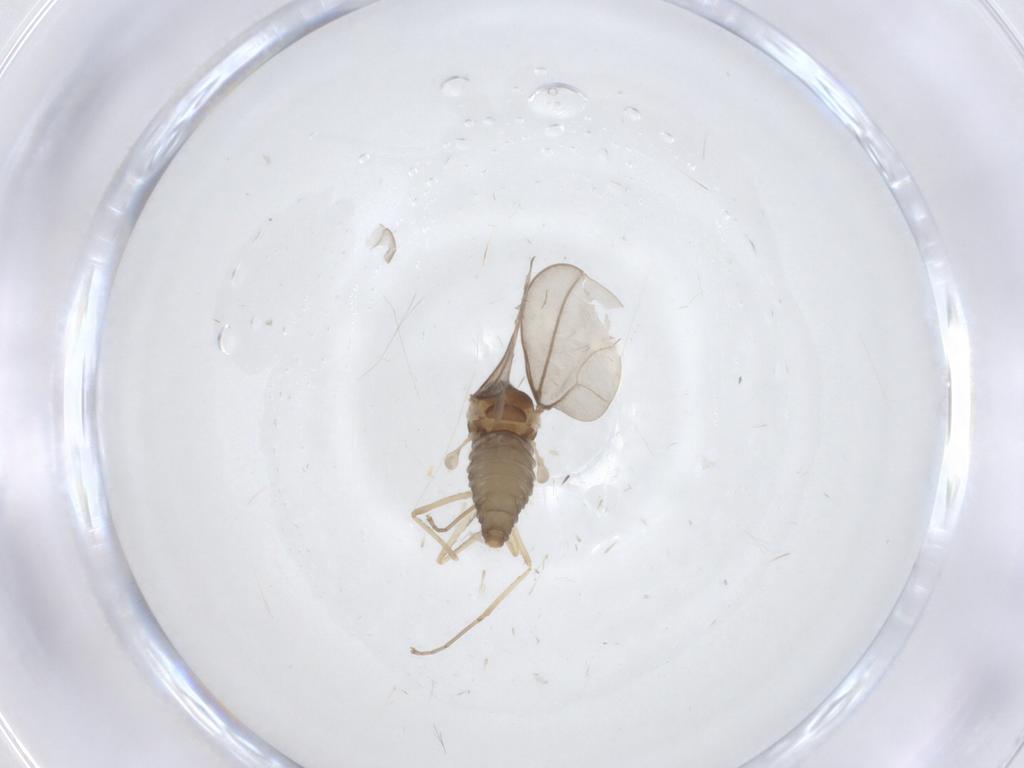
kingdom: Animalia
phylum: Arthropoda
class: Insecta
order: Diptera
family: Cecidomyiidae
